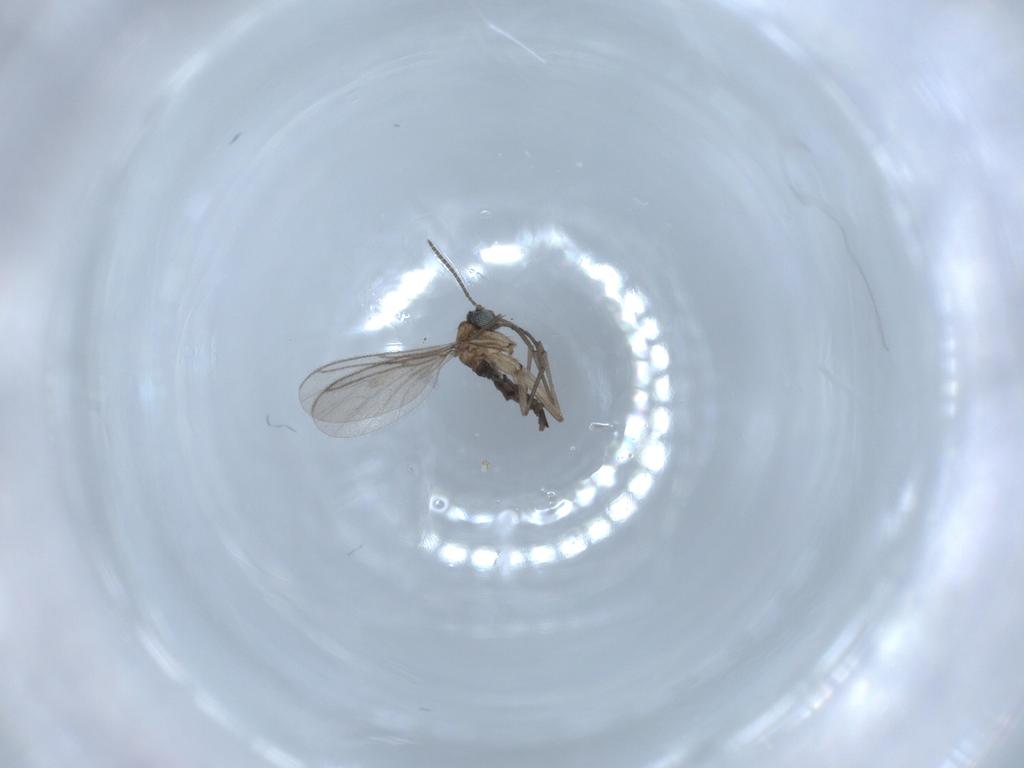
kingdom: Animalia
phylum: Arthropoda
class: Insecta
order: Diptera
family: Sciaridae
